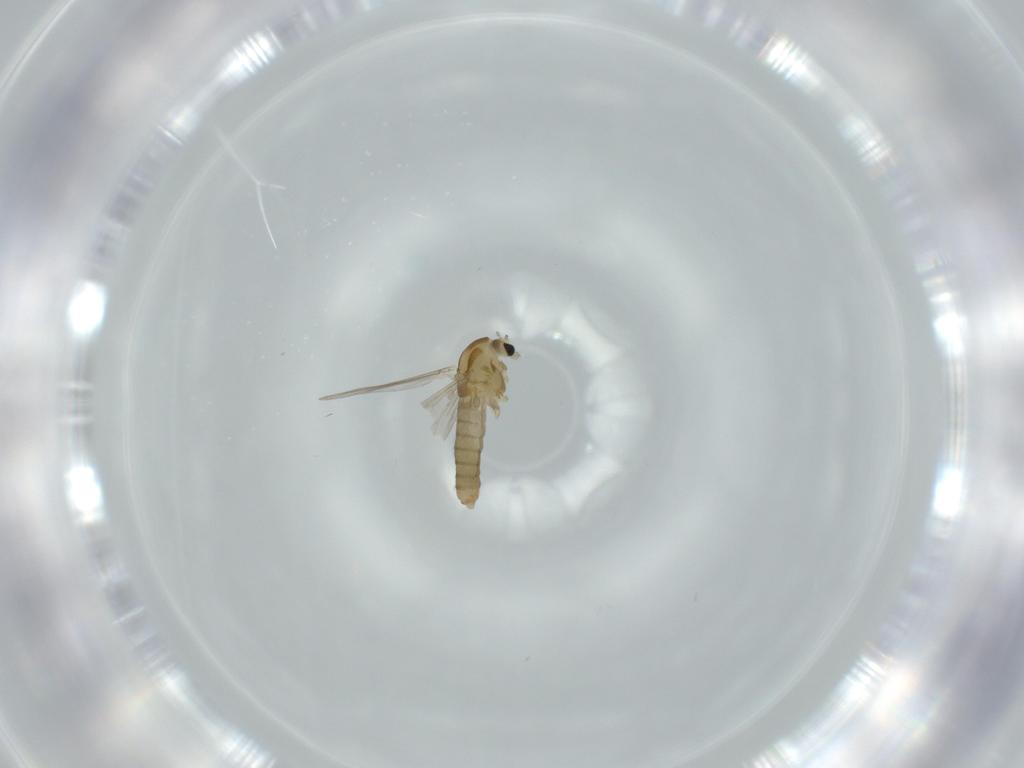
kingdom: Animalia
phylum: Arthropoda
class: Insecta
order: Diptera
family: Chironomidae
